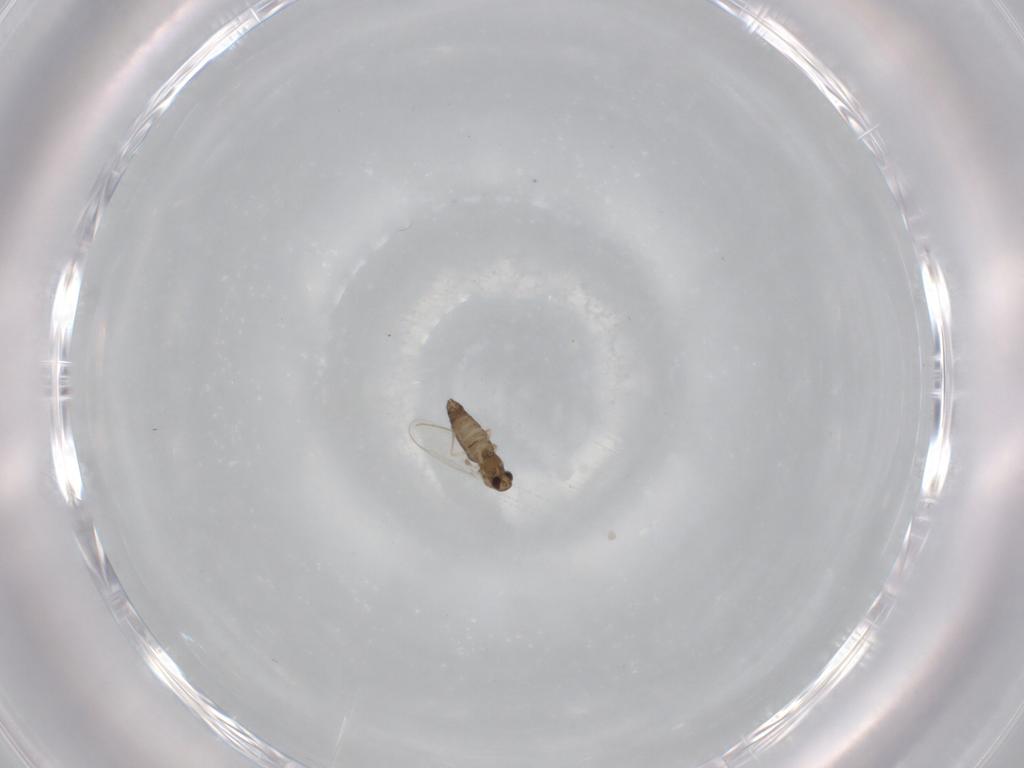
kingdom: Animalia
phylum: Arthropoda
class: Insecta
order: Diptera
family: Chironomidae
